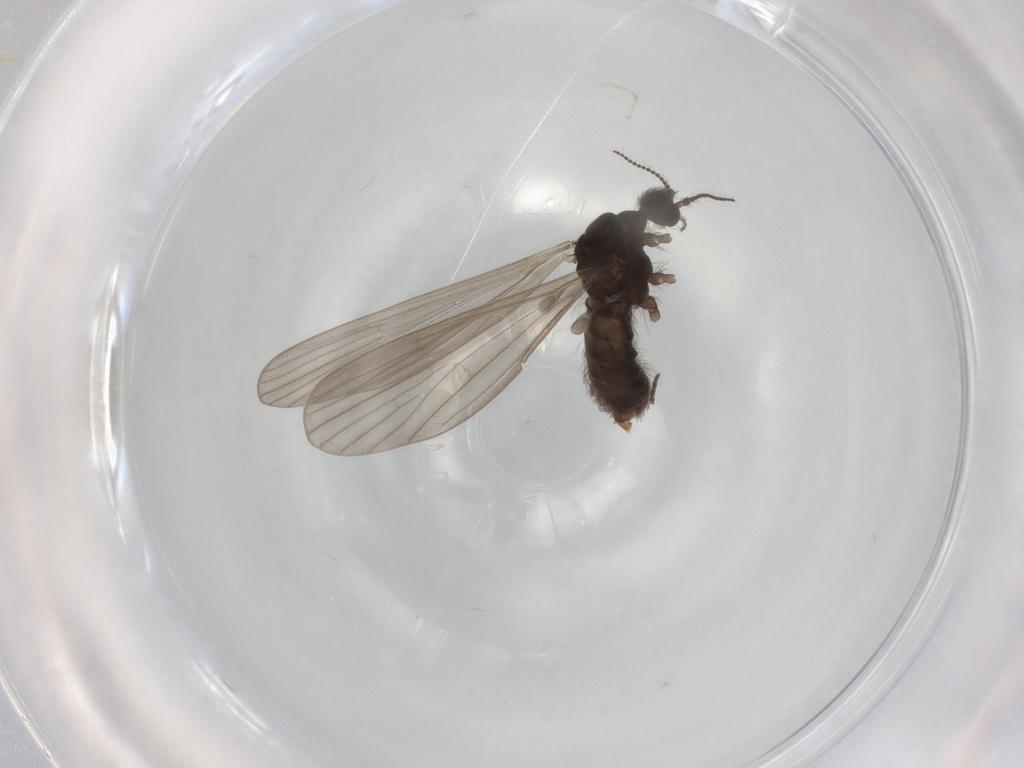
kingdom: Animalia
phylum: Arthropoda
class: Insecta
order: Diptera
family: Limoniidae
